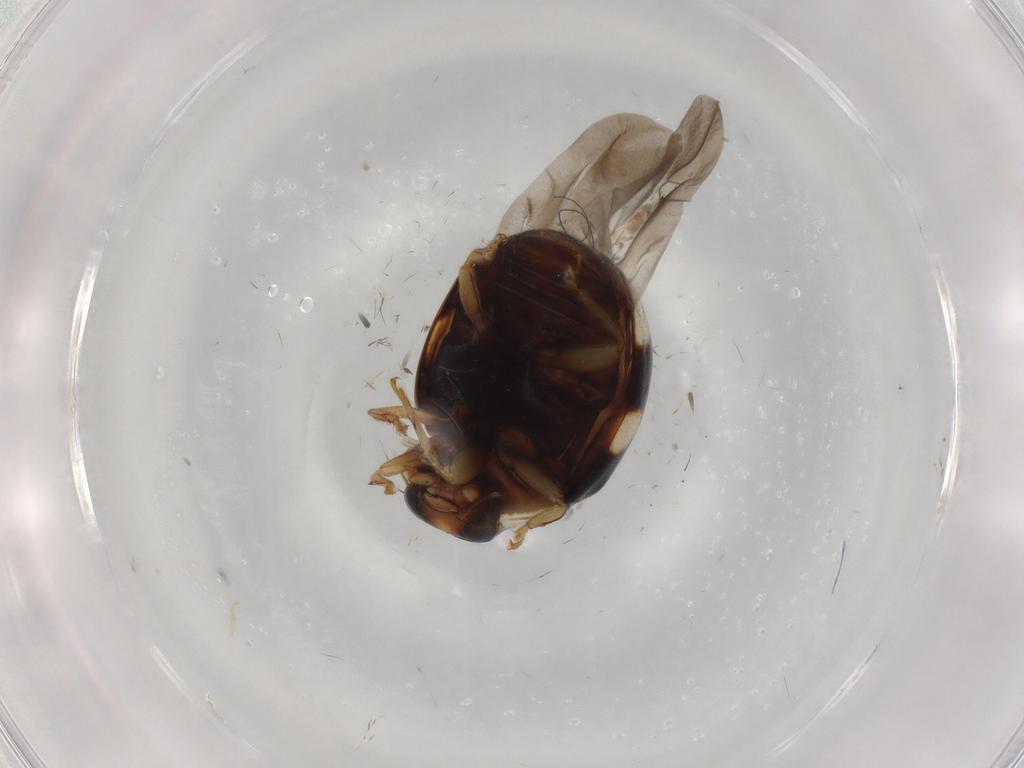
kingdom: Animalia
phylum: Arthropoda
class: Insecta
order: Coleoptera
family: Coccinellidae
